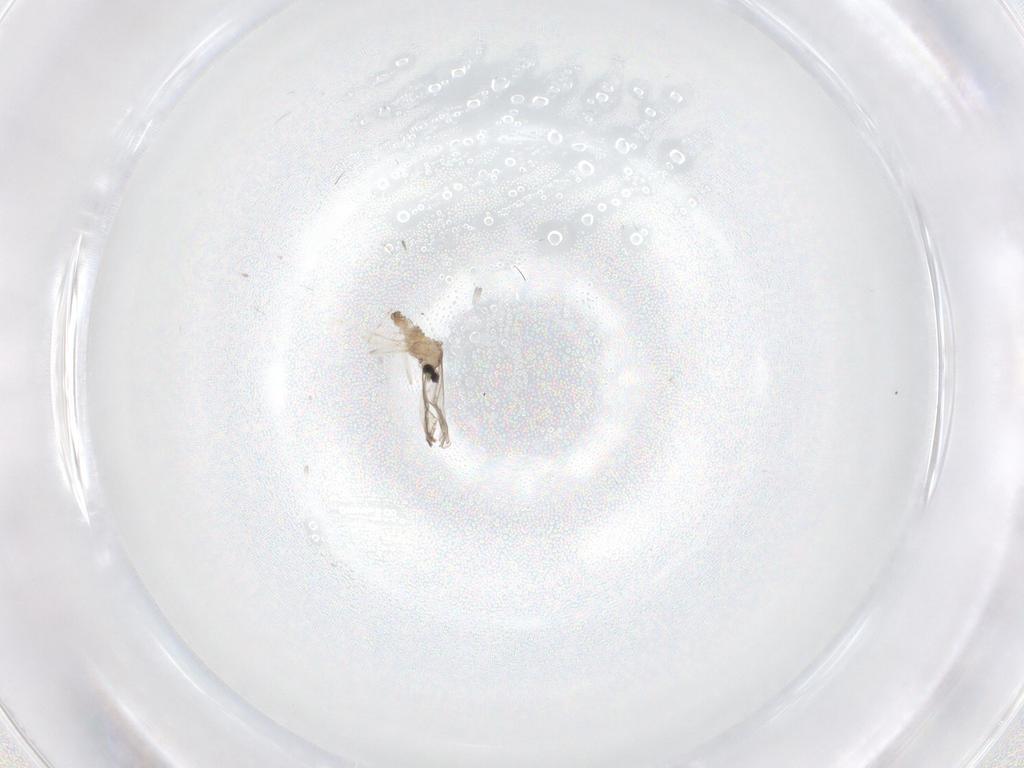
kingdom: Animalia
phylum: Arthropoda
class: Insecta
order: Diptera
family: Cecidomyiidae
